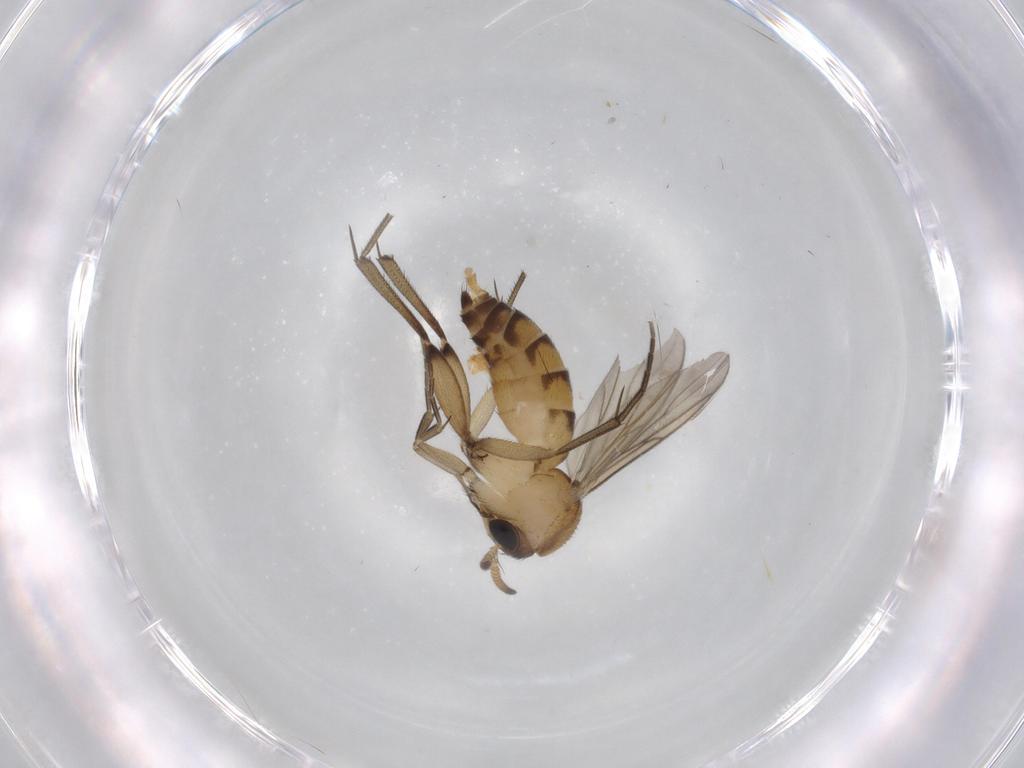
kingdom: Animalia
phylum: Arthropoda
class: Insecta
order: Diptera
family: Mycetophilidae
